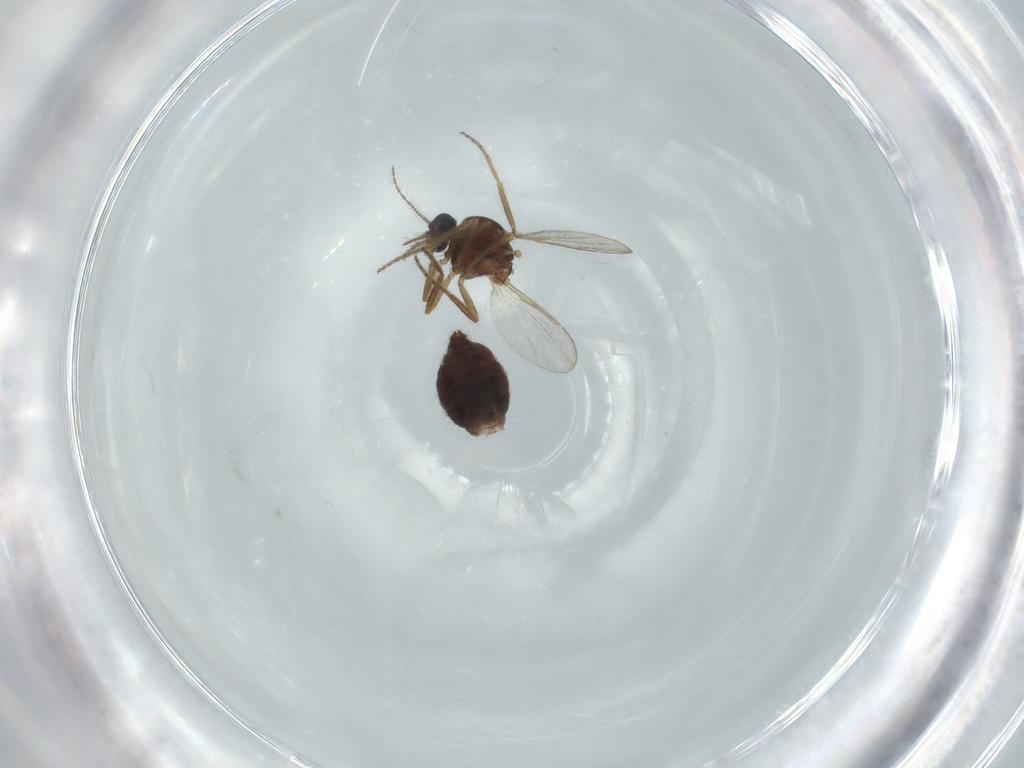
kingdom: Animalia
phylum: Arthropoda
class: Insecta
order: Diptera
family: Ceratopogonidae
